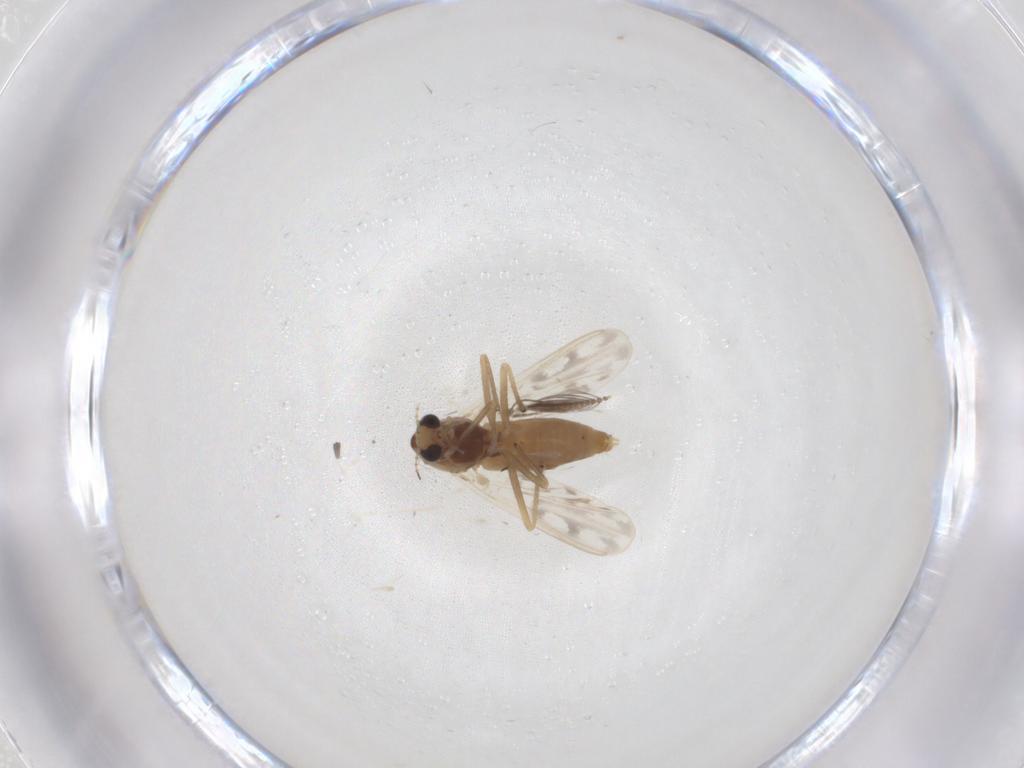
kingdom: Animalia
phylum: Arthropoda
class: Insecta
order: Diptera
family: Chironomidae
